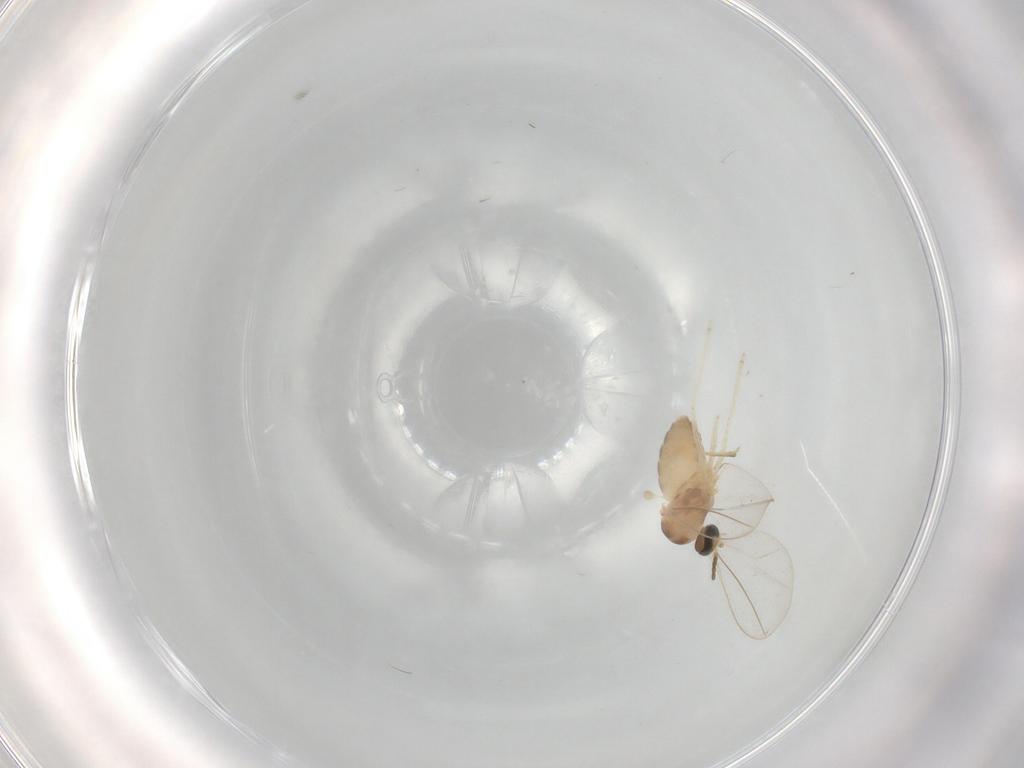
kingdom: Animalia
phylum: Arthropoda
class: Insecta
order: Diptera
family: Cecidomyiidae
